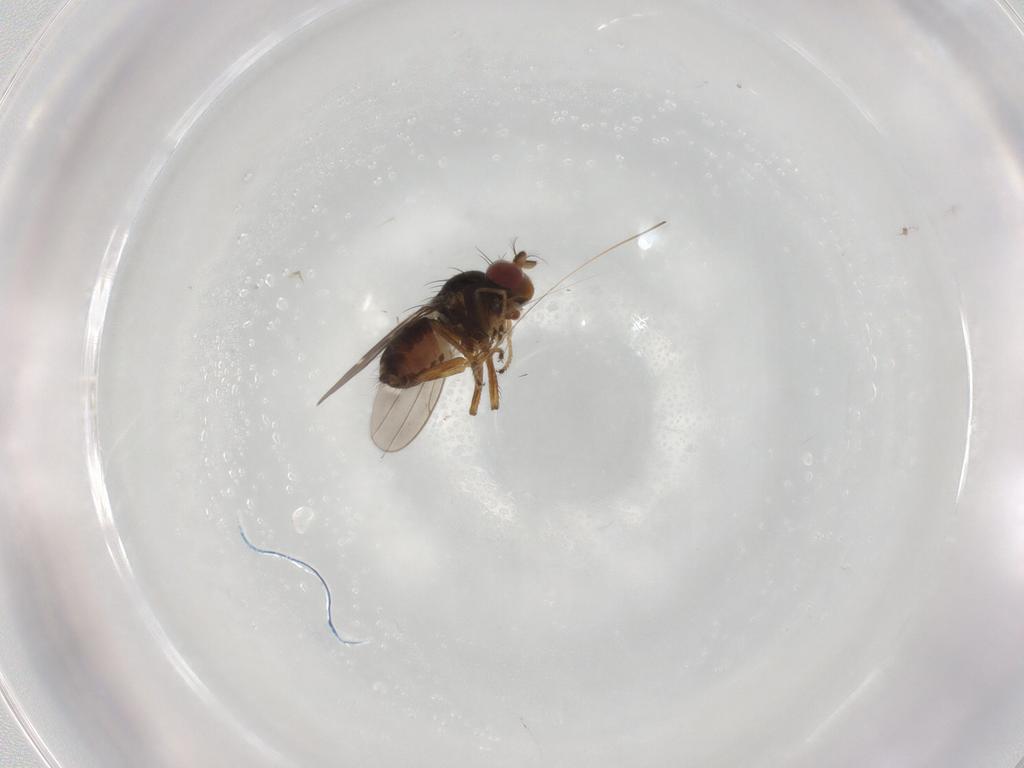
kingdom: Animalia
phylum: Arthropoda
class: Insecta
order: Diptera
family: Ephydridae
